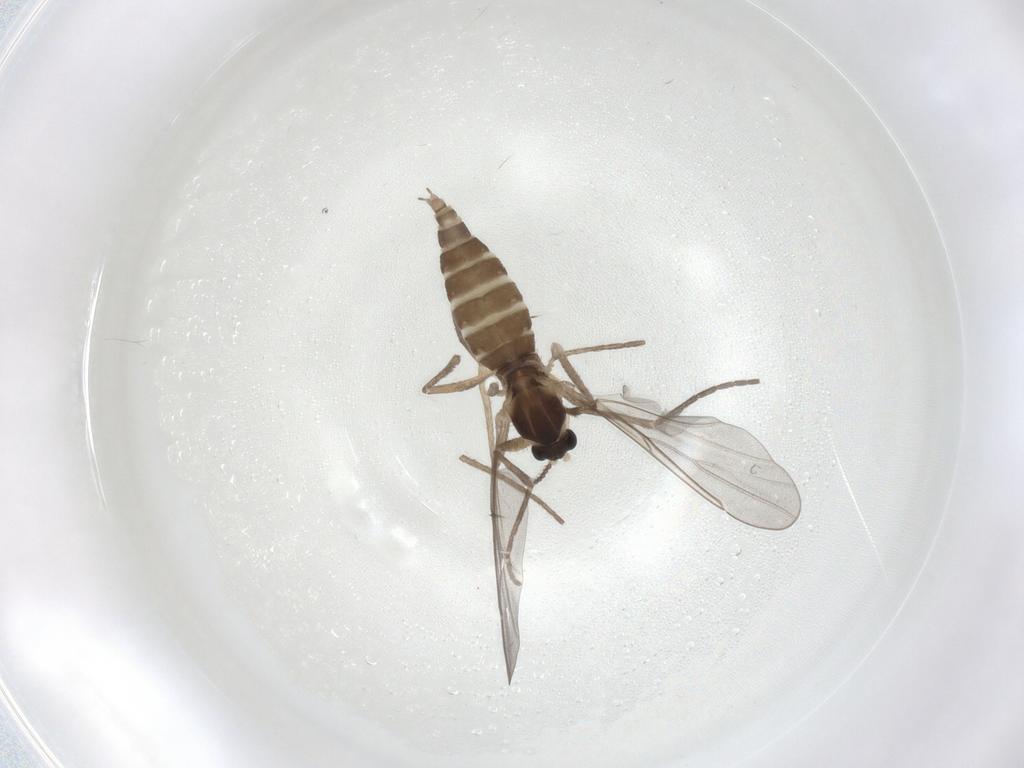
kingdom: Animalia
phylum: Arthropoda
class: Insecta
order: Diptera
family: Cecidomyiidae
